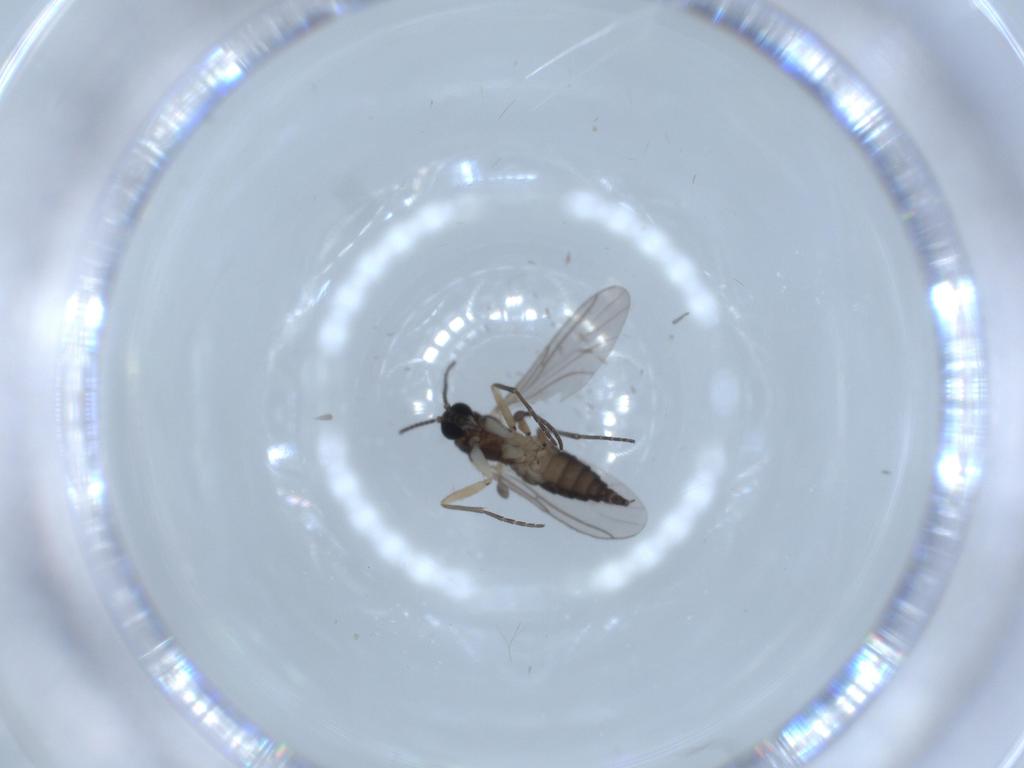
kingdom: Animalia
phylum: Arthropoda
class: Insecta
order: Diptera
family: Sciaridae
